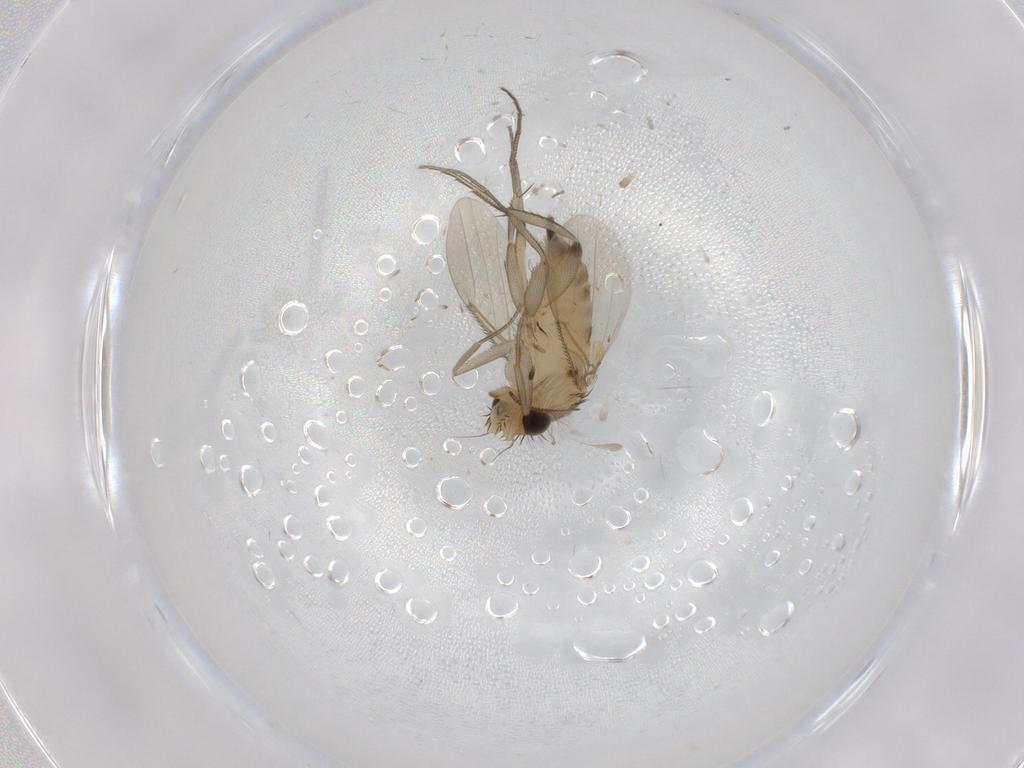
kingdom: Animalia
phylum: Arthropoda
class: Insecta
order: Diptera
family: Phoridae
